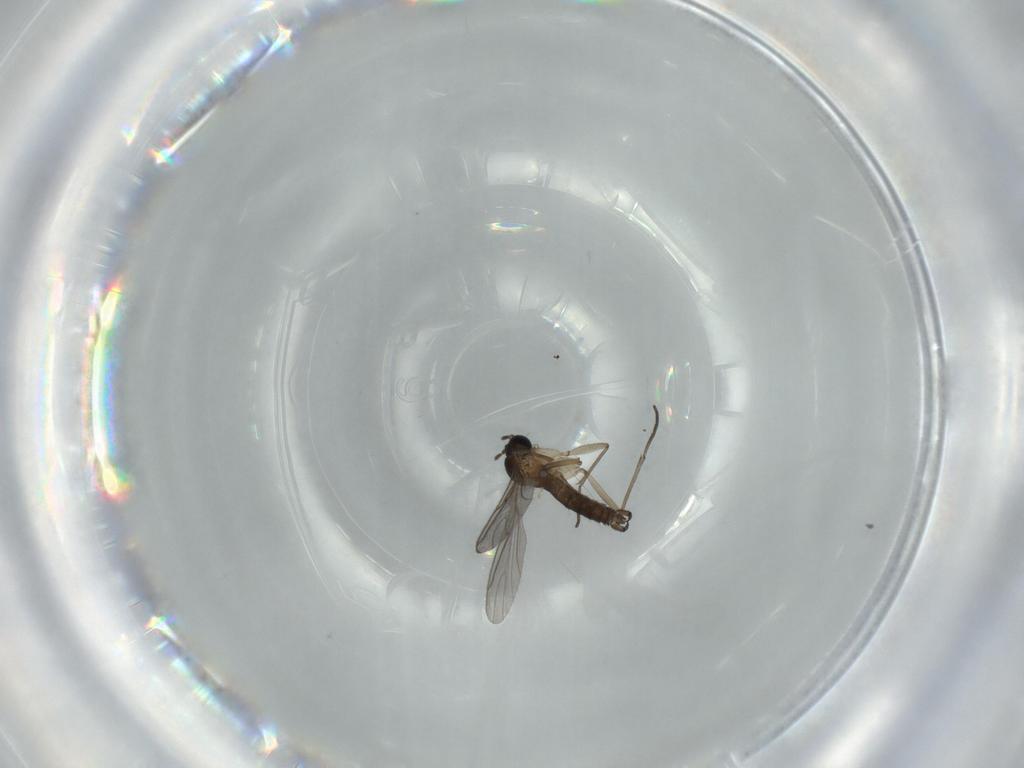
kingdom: Animalia
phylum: Arthropoda
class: Insecta
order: Diptera
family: Sciaridae
